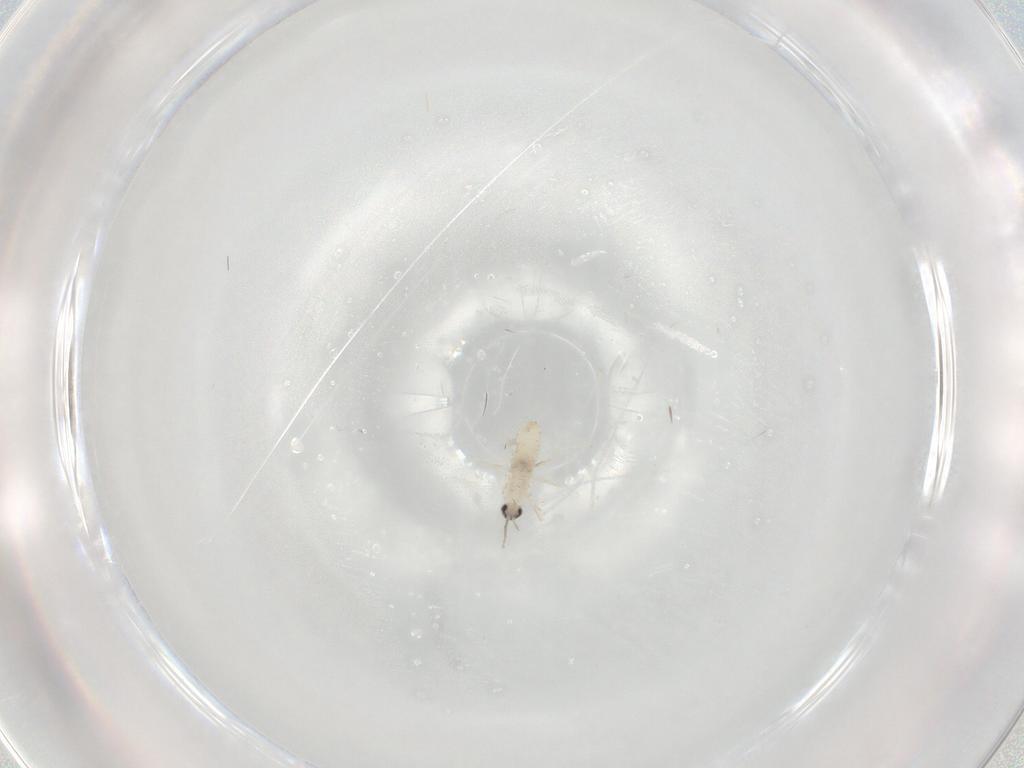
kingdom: Animalia
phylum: Arthropoda
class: Insecta
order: Diptera
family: Cecidomyiidae
